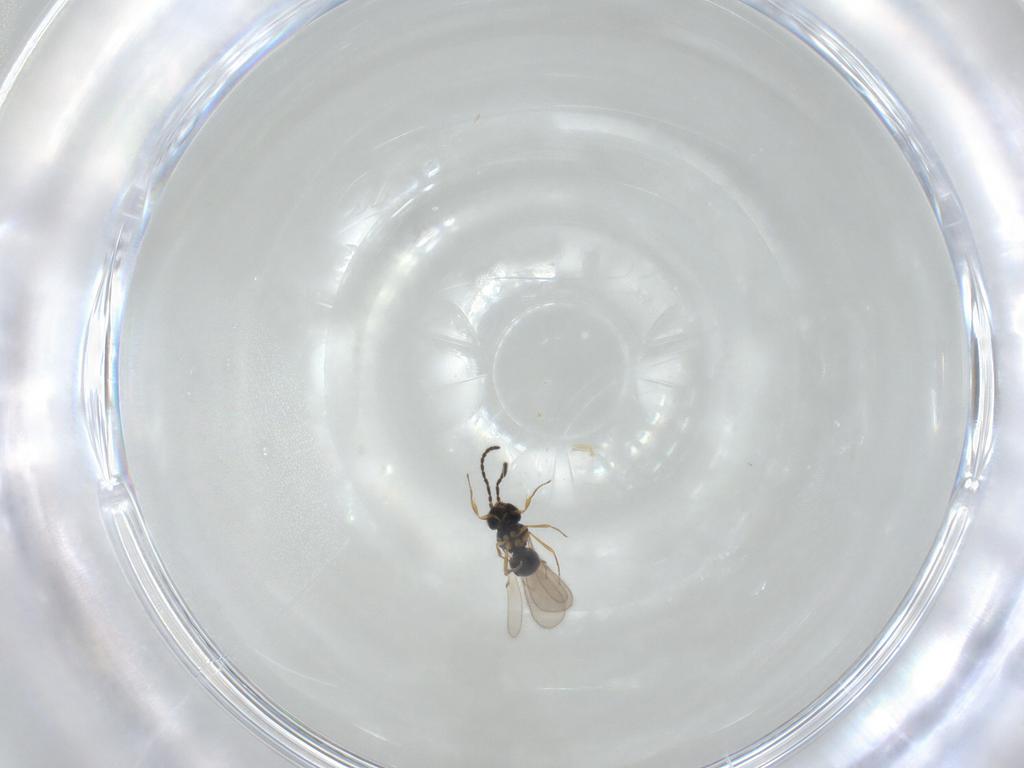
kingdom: Animalia
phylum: Arthropoda
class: Insecta
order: Hymenoptera
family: Scelionidae
